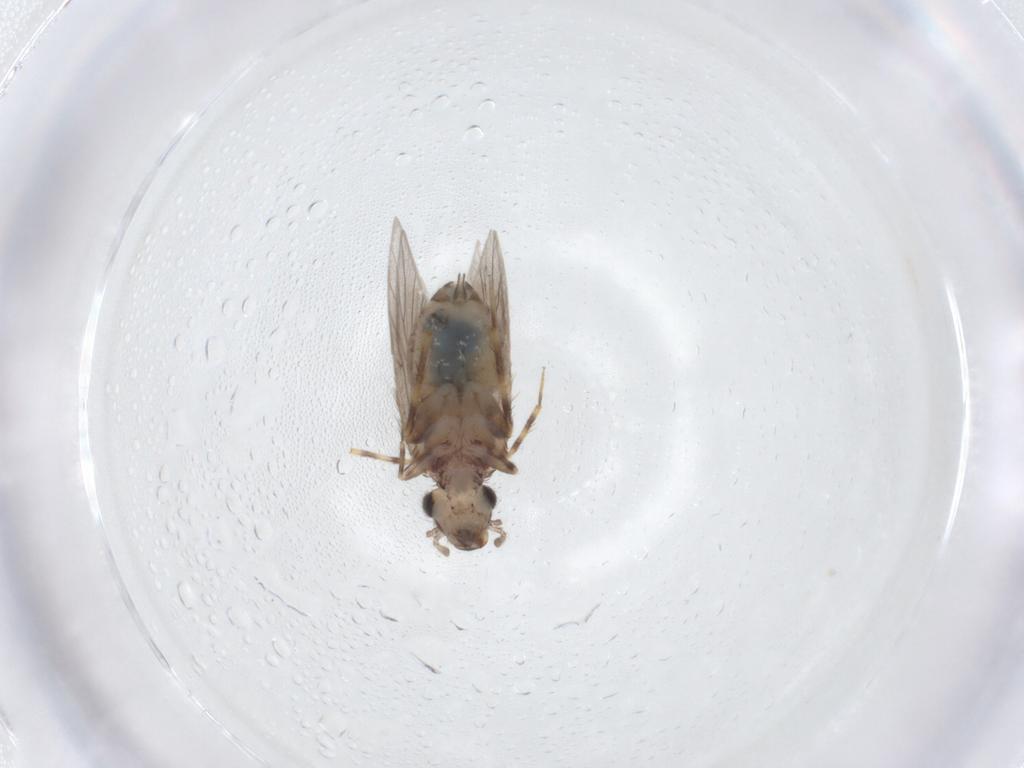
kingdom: Animalia
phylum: Arthropoda
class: Insecta
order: Psocodea
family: Lepidopsocidae
